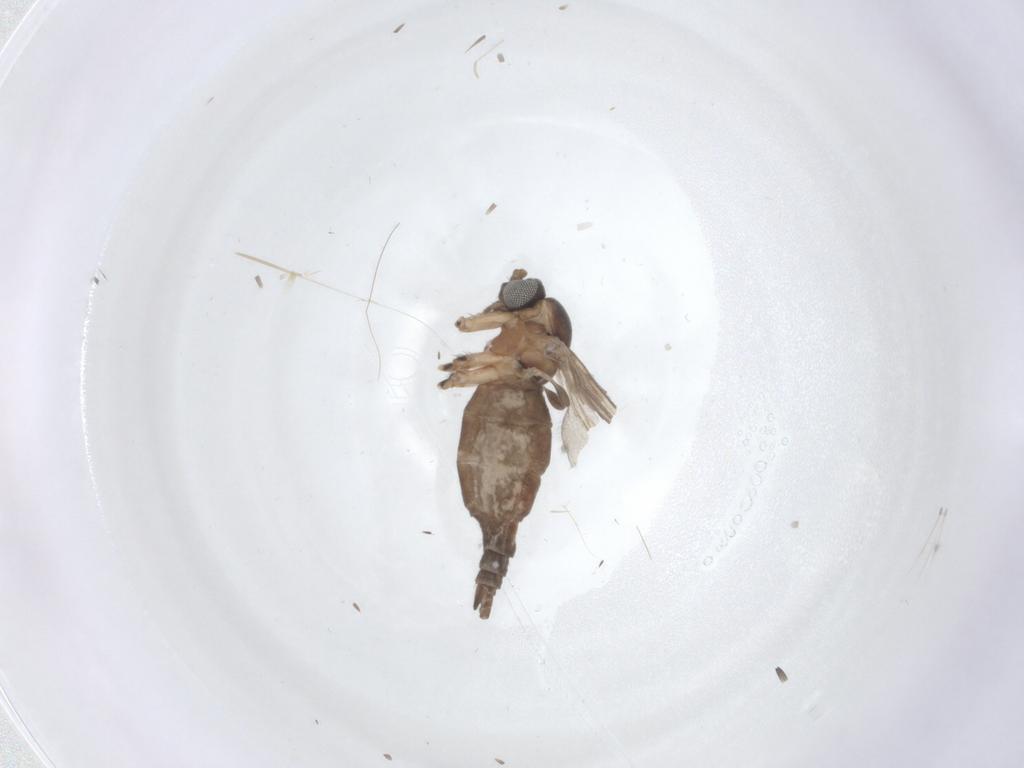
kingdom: Animalia
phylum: Arthropoda
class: Insecta
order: Diptera
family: Sciaridae
